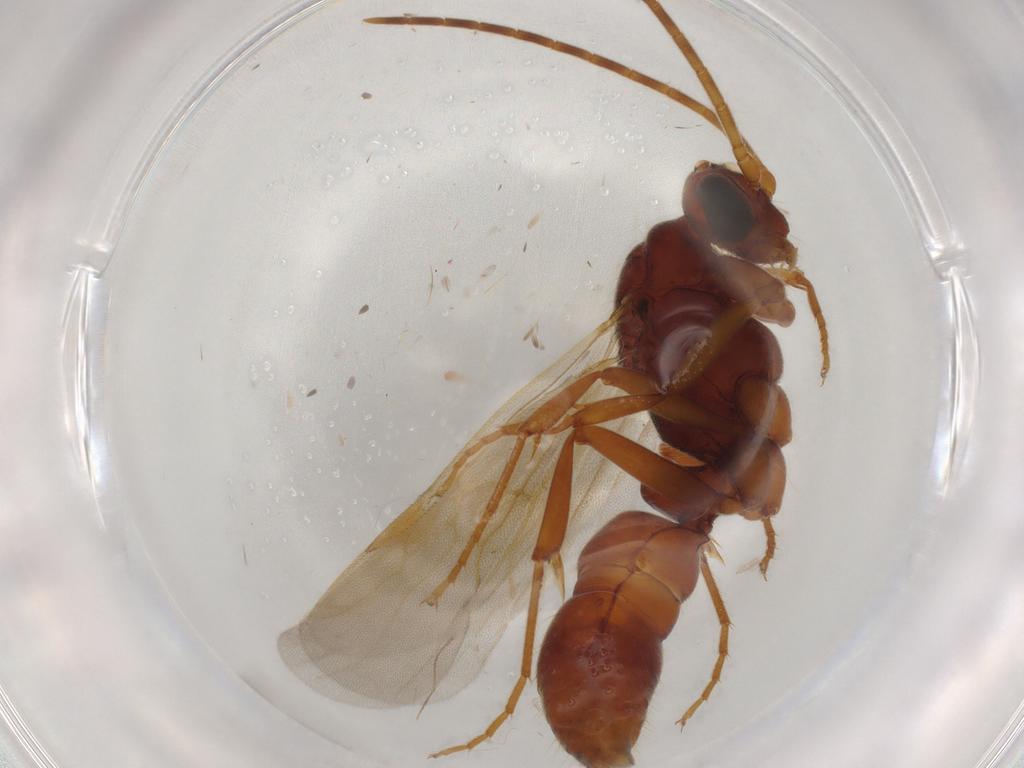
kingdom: Animalia
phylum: Arthropoda
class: Insecta
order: Hymenoptera
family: Formicidae
